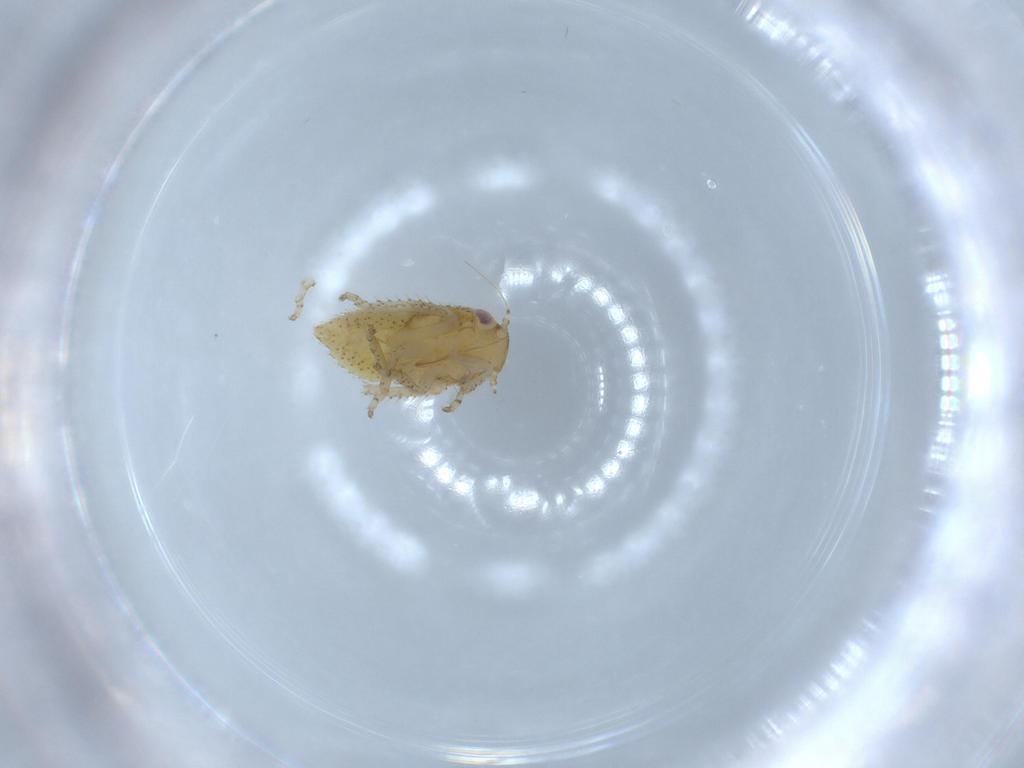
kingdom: Animalia
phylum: Arthropoda
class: Insecta
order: Hemiptera
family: Cicadellidae
